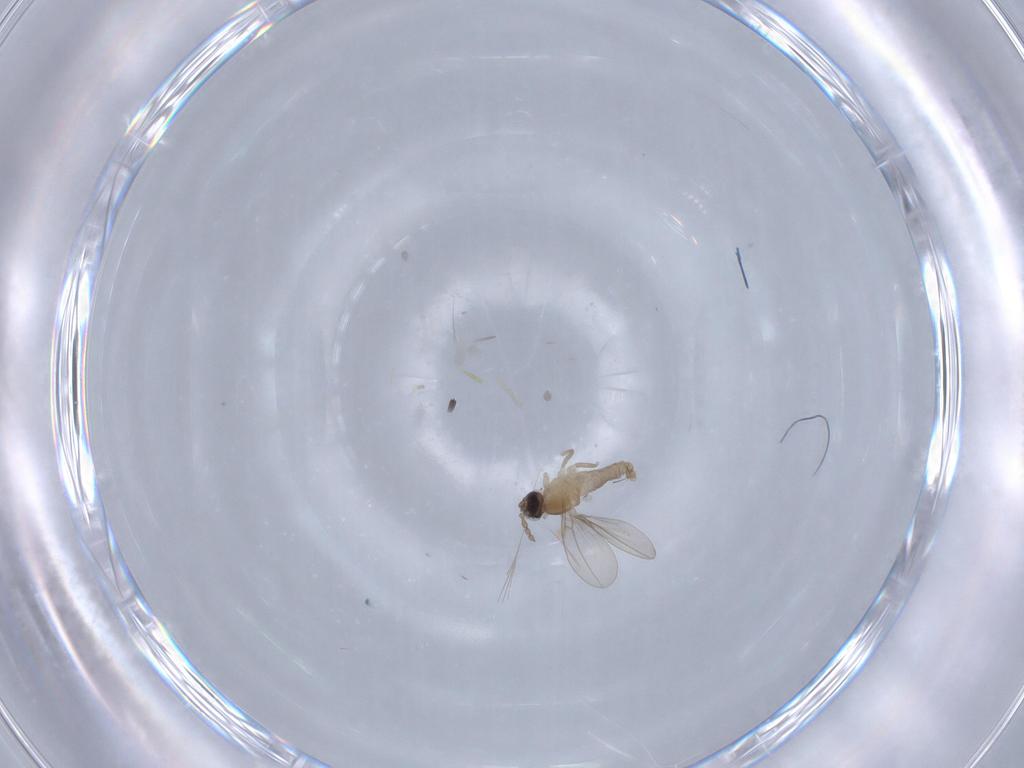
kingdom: Animalia
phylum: Arthropoda
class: Insecta
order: Diptera
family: Cecidomyiidae
